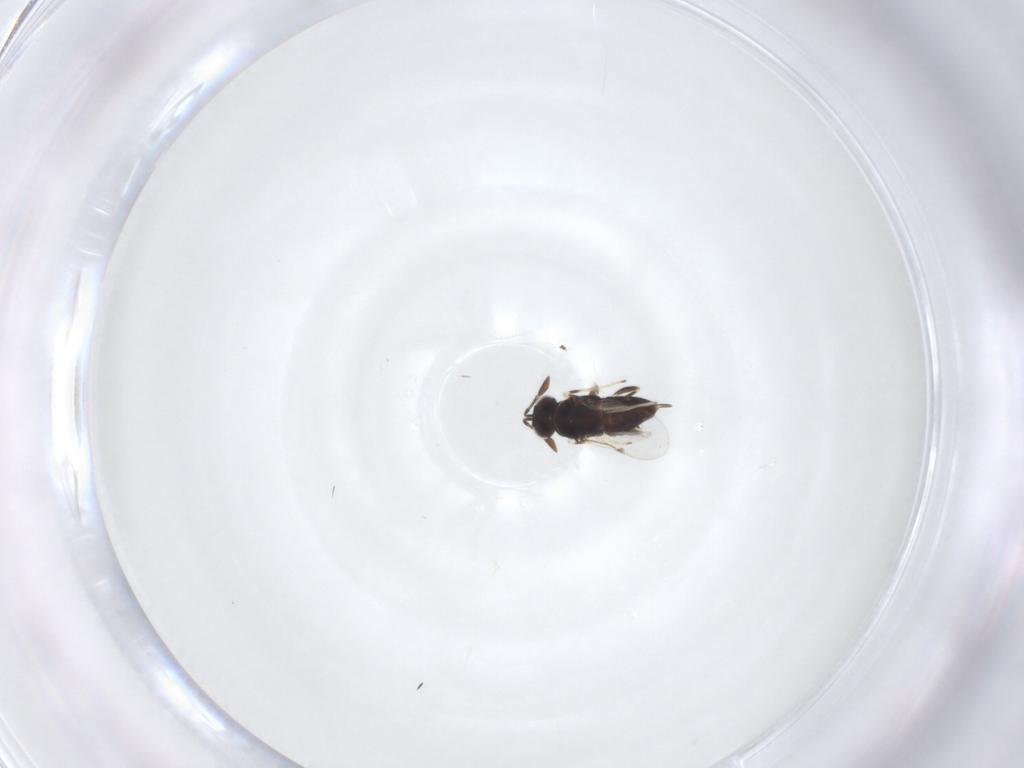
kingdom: Animalia
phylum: Arthropoda
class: Insecta
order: Hymenoptera
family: Encyrtidae
